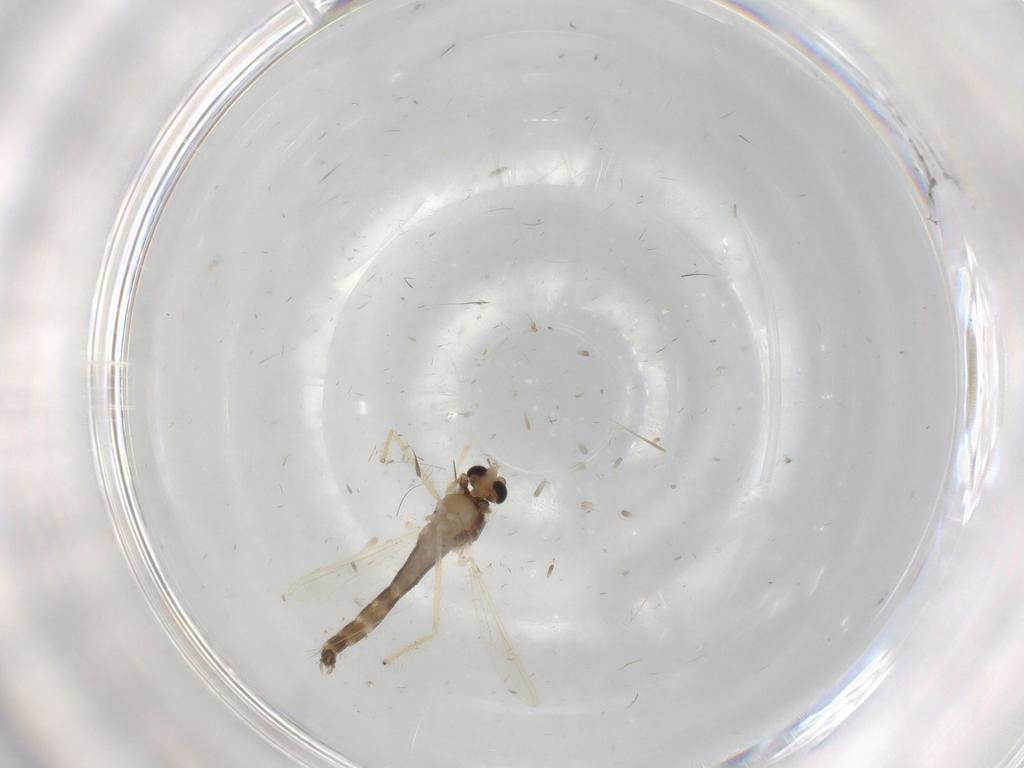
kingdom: Animalia
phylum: Arthropoda
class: Insecta
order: Diptera
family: Chironomidae
